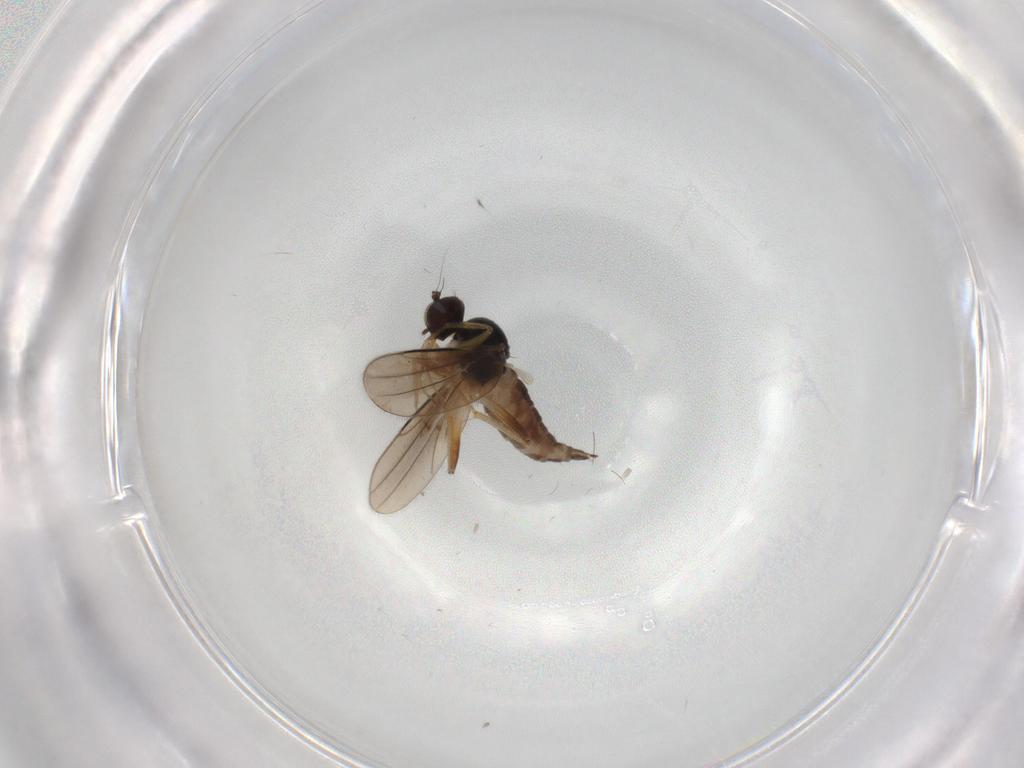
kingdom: Animalia
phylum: Arthropoda
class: Insecta
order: Diptera
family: Hybotidae
